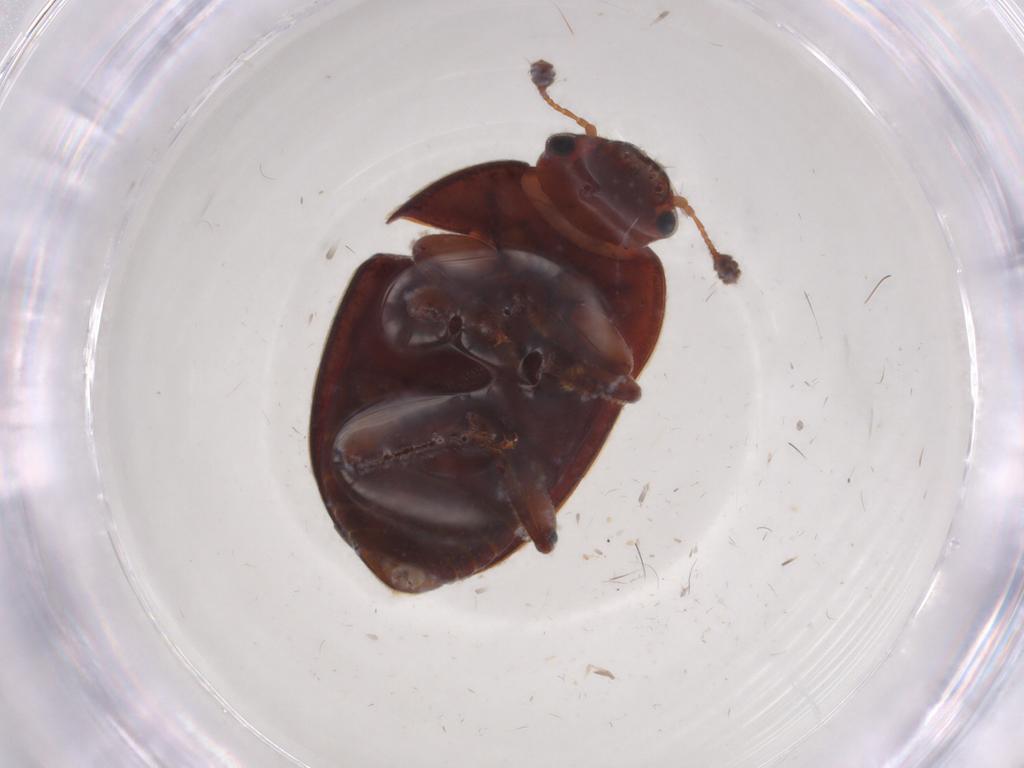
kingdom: Animalia
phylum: Arthropoda
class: Insecta
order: Coleoptera
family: Nitidulidae
